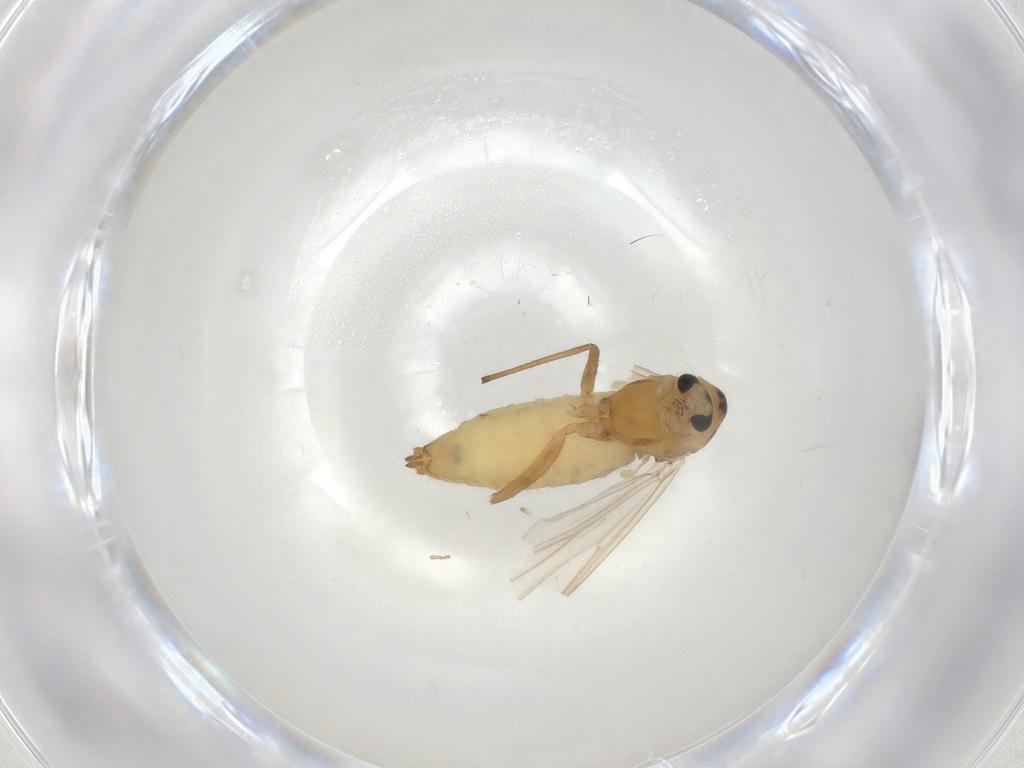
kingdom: Animalia
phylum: Arthropoda
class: Insecta
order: Diptera
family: Chironomidae
